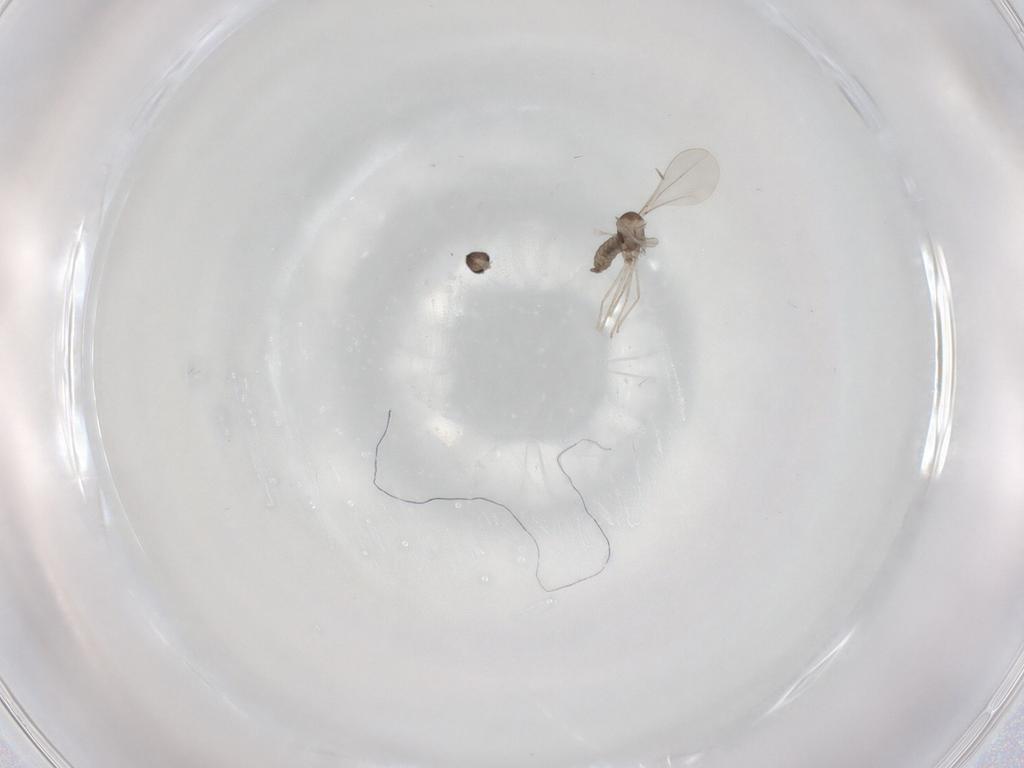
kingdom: Animalia
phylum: Arthropoda
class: Insecta
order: Diptera
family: Cecidomyiidae
